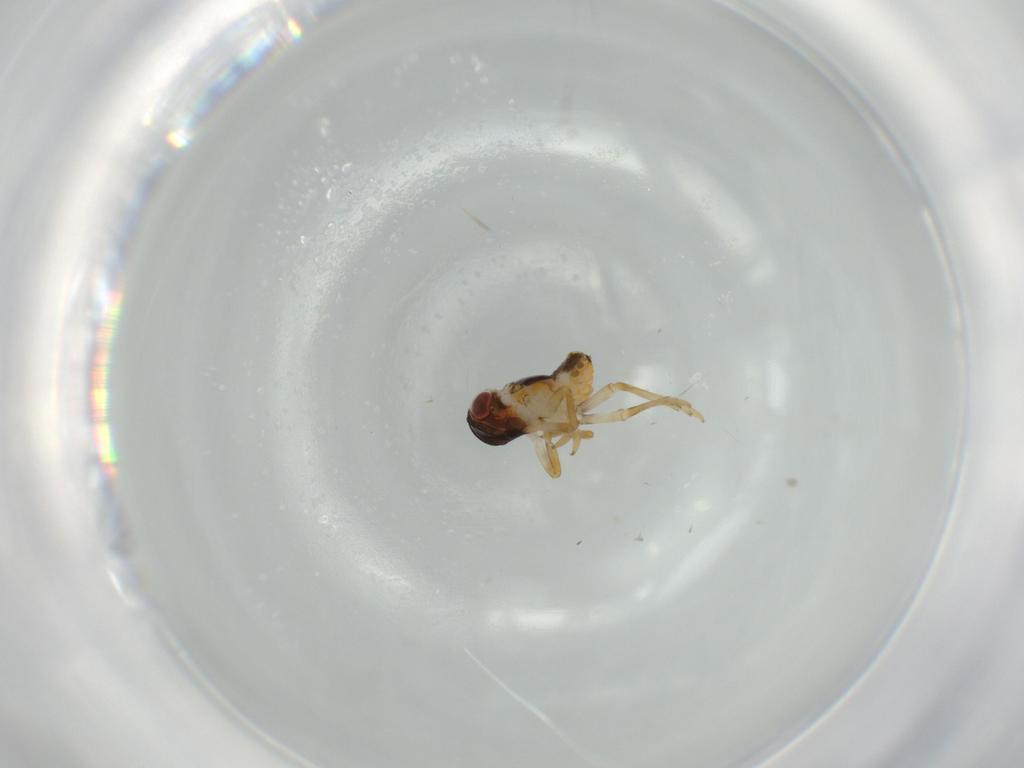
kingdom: Animalia
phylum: Arthropoda
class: Insecta
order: Hemiptera
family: Issidae
